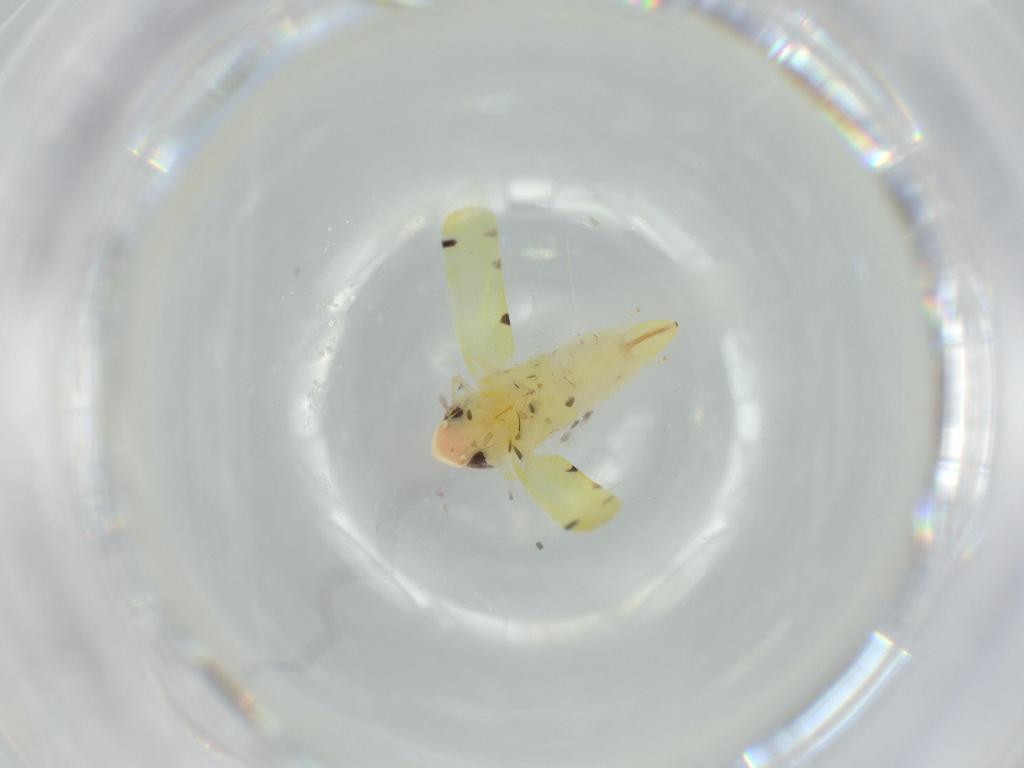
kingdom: Animalia
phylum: Arthropoda
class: Insecta
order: Hemiptera
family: Cicadellidae
